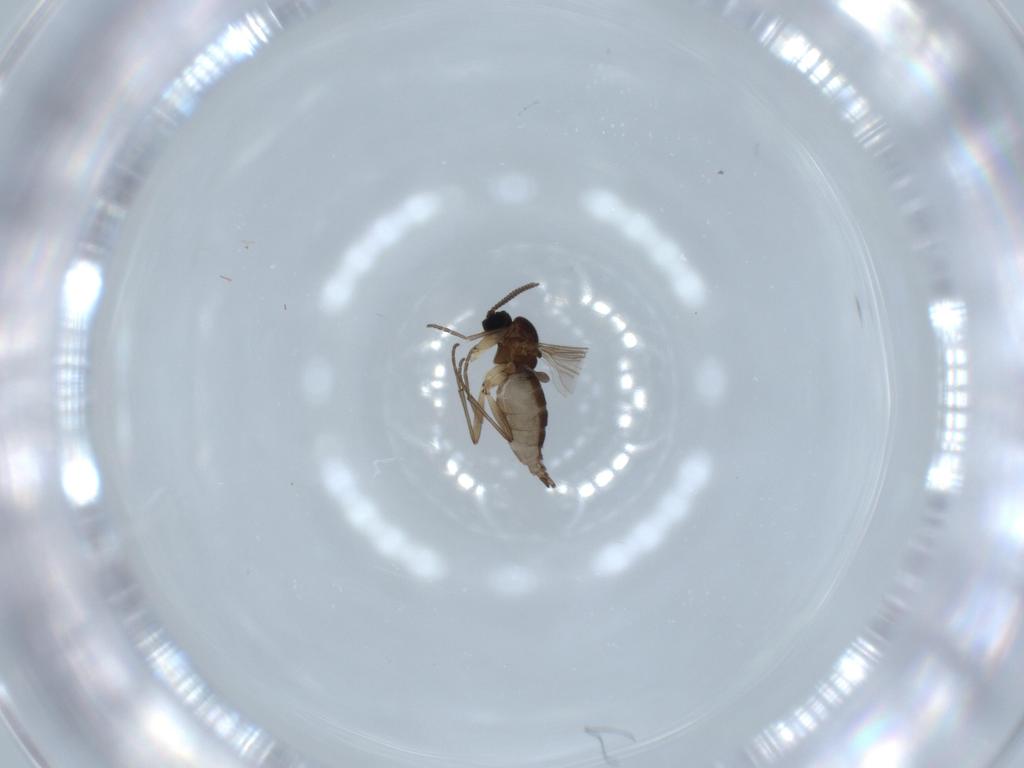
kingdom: Animalia
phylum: Arthropoda
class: Insecta
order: Diptera
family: Sciaridae
